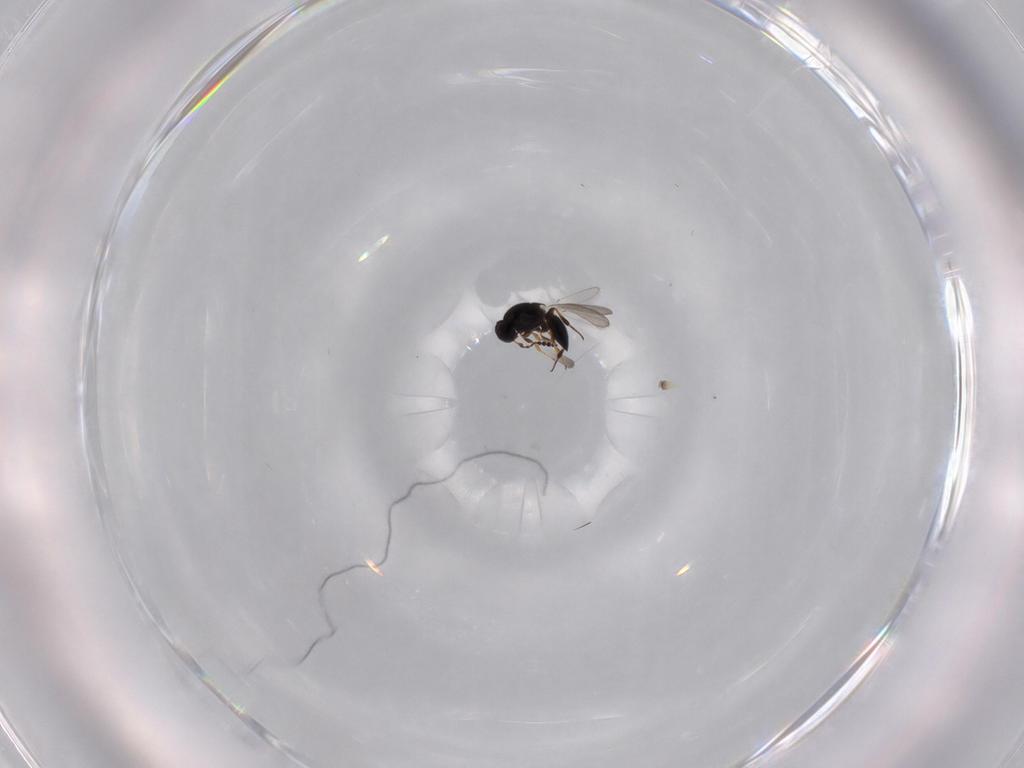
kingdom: Animalia
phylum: Arthropoda
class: Insecta
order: Hymenoptera
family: Platygastridae
